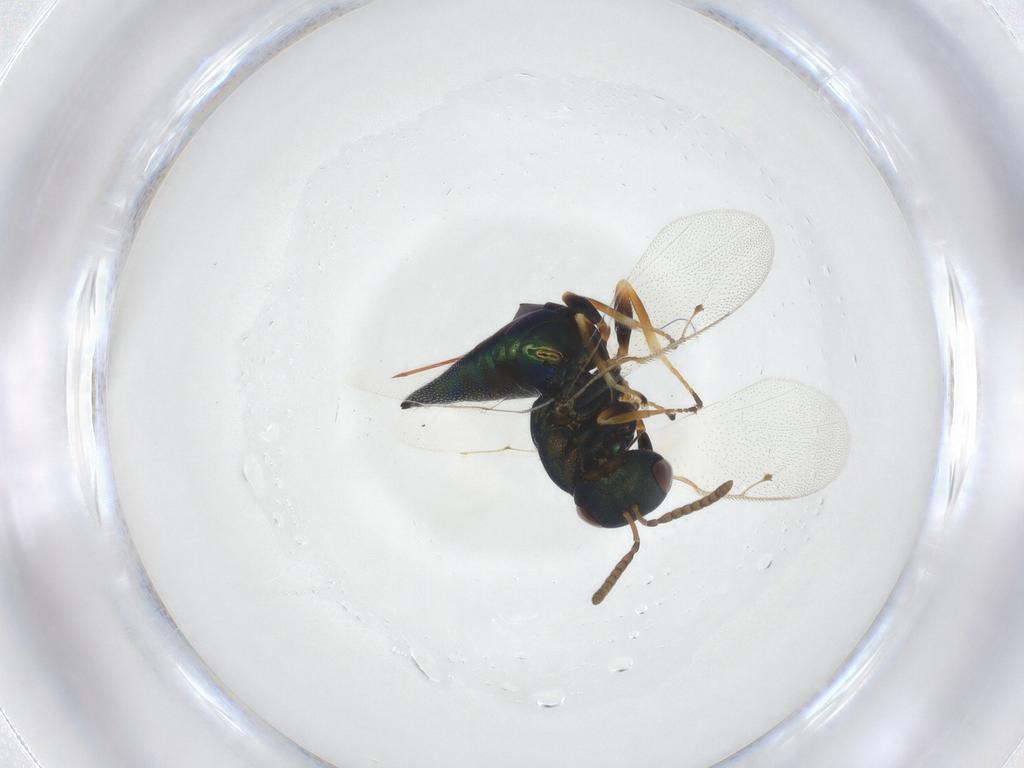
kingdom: Animalia
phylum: Arthropoda
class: Insecta
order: Hymenoptera
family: Pteromalidae
